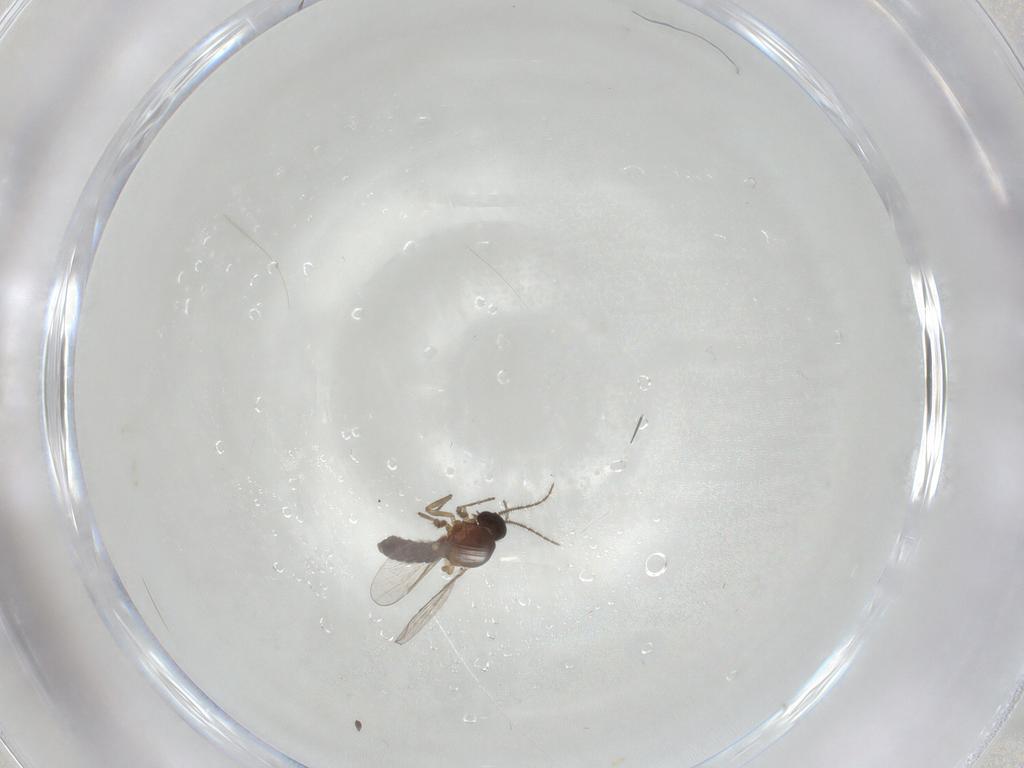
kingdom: Animalia
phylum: Arthropoda
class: Insecta
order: Diptera
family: Ceratopogonidae
